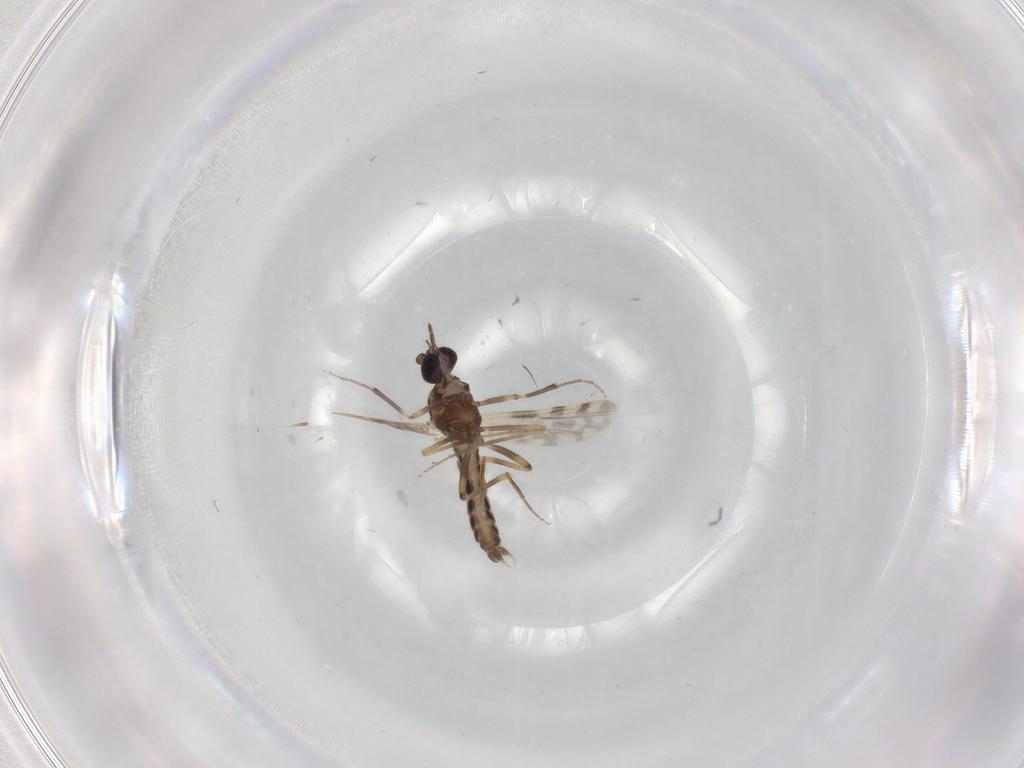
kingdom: Animalia
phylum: Arthropoda
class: Insecta
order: Diptera
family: Ceratopogonidae
